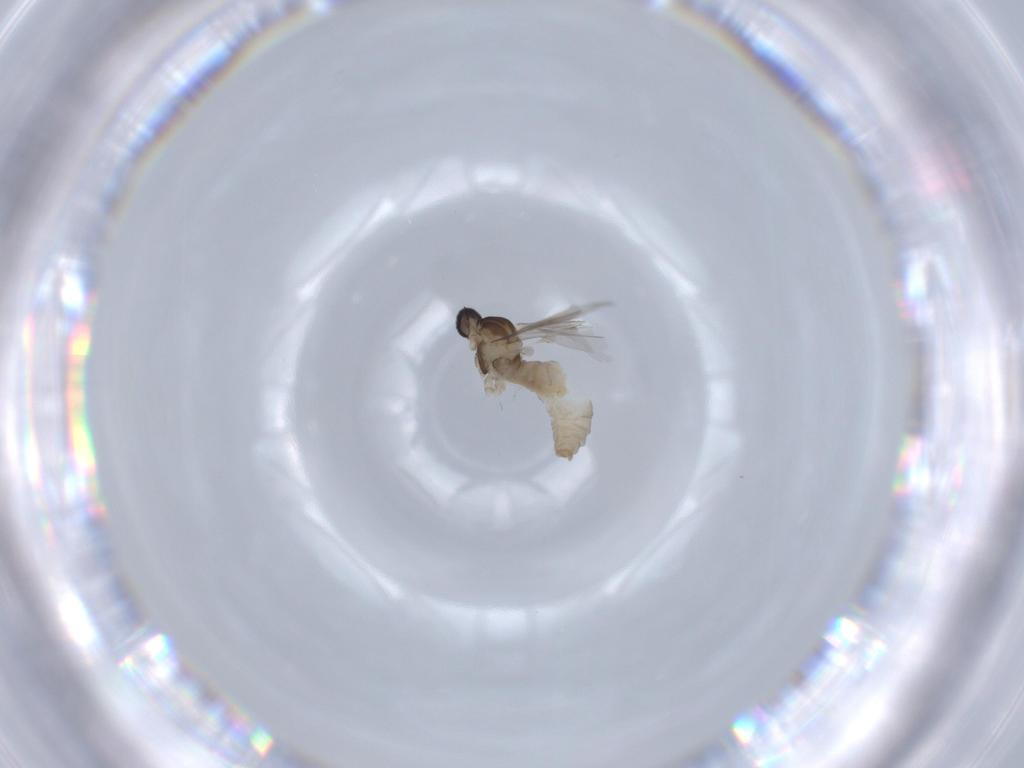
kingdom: Animalia
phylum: Arthropoda
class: Insecta
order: Diptera
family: Cecidomyiidae
